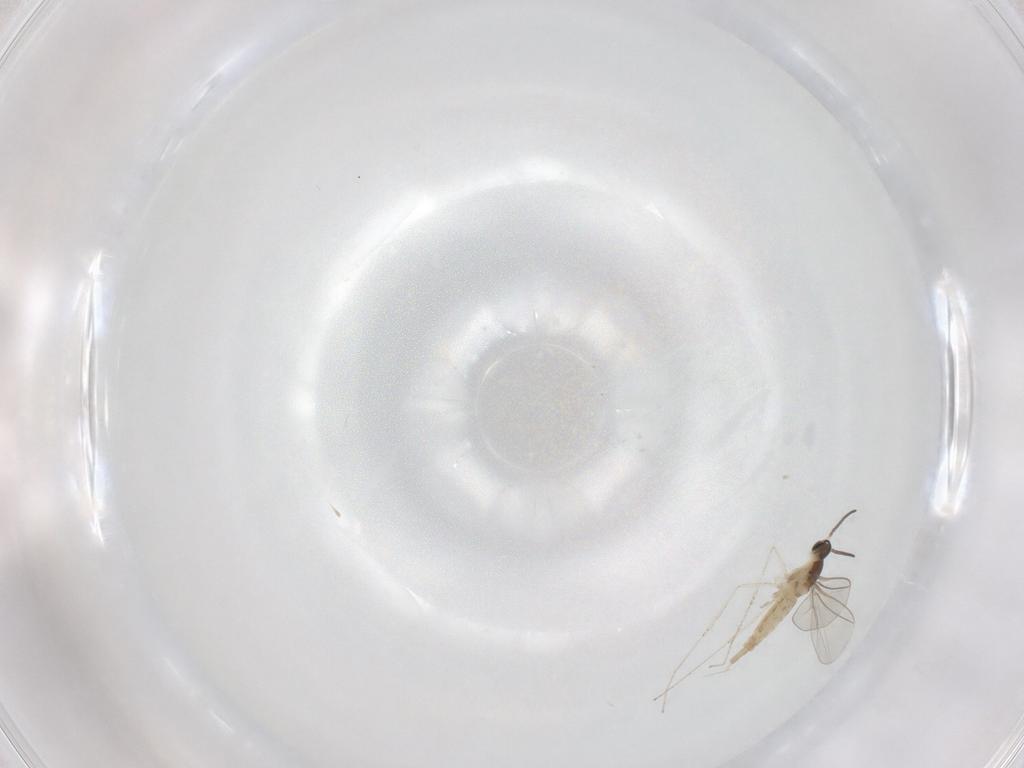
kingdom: Animalia
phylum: Arthropoda
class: Insecta
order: Diptera
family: Cecidomyiidae
